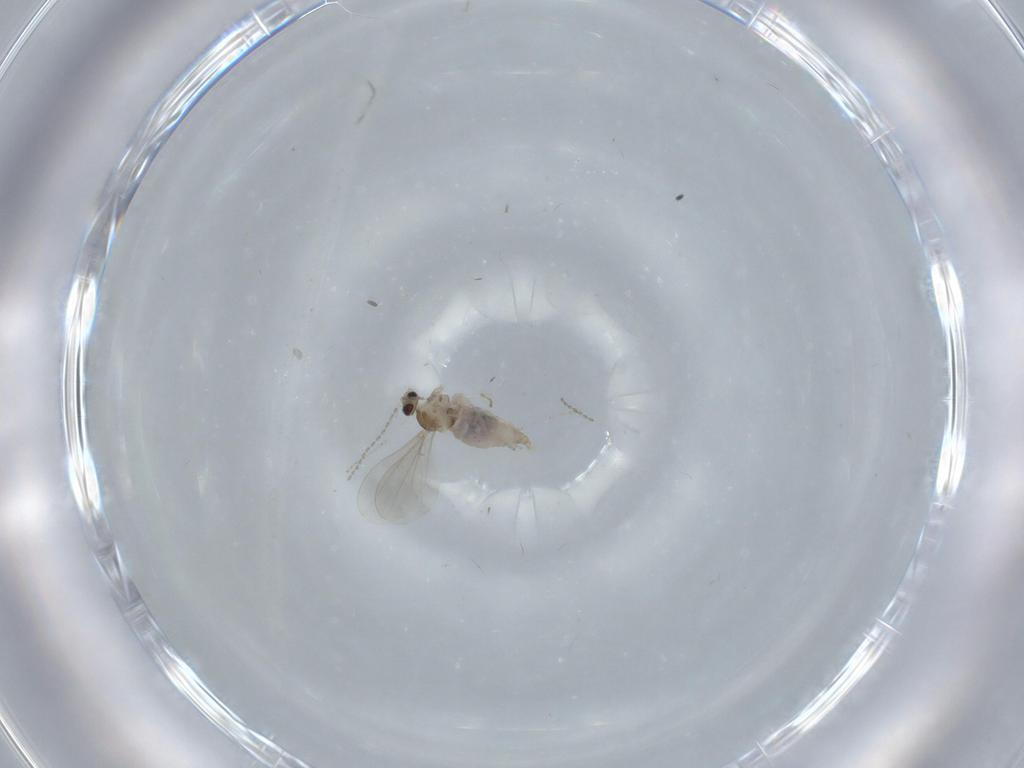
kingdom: Animalia
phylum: Arthropoda
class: Insecta
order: Diptera
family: Cecidomyiidae
